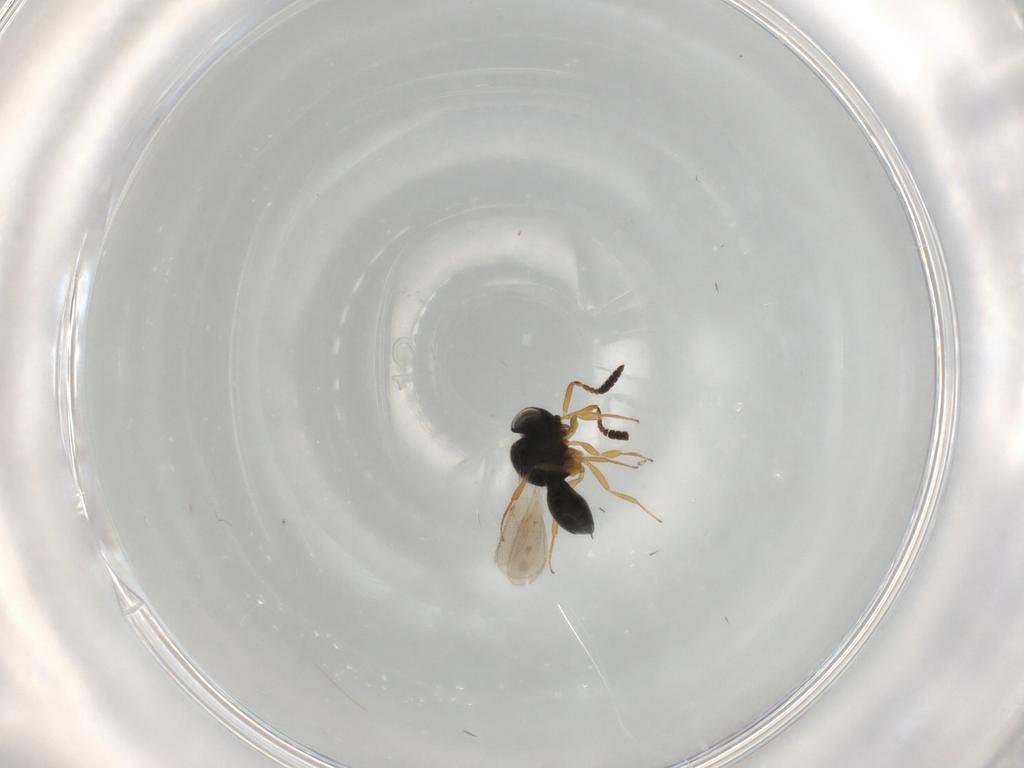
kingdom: Animalia
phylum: Arthropoda
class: Insecta
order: Hymenoptera
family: Scelionidae
